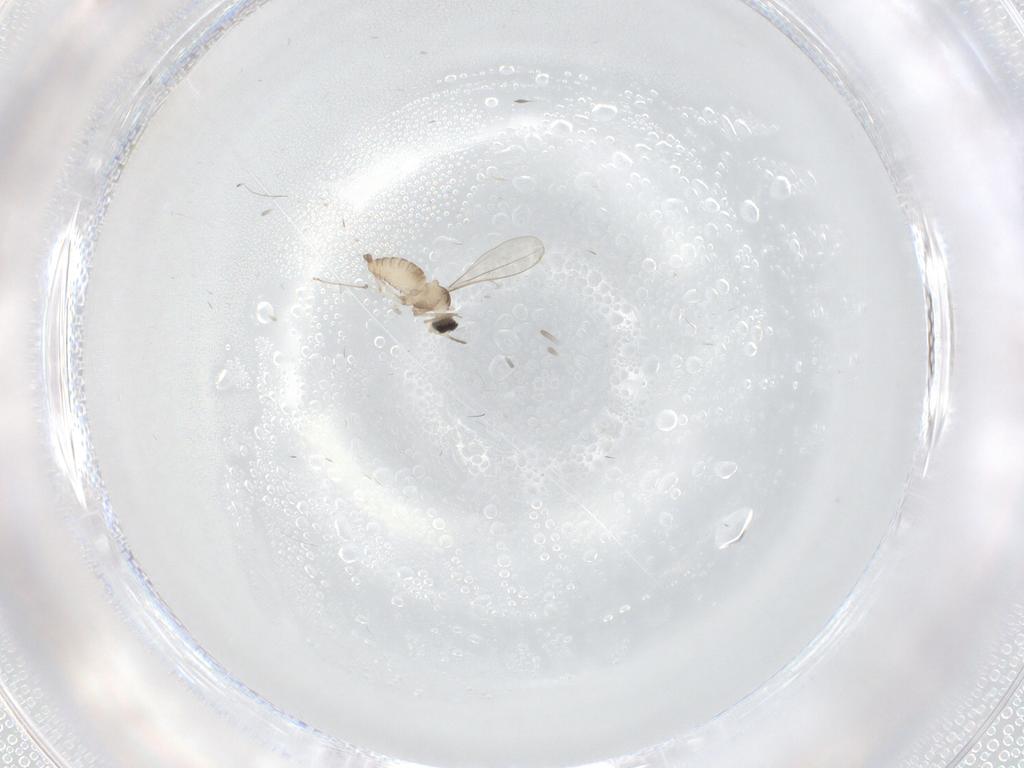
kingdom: Animalia
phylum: Arthropoda
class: Insecta
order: Diptera
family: Cecidomyiidae
